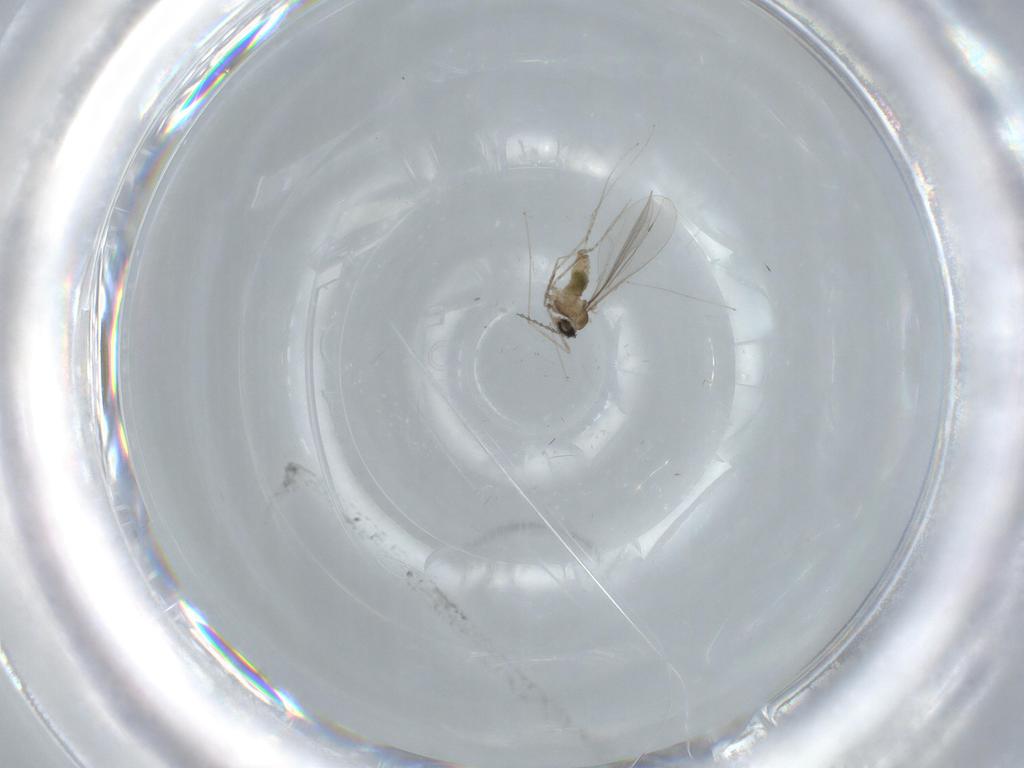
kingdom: Animalia
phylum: Arthropoda
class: Insecta
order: Diptera
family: Cecidomyiidae
